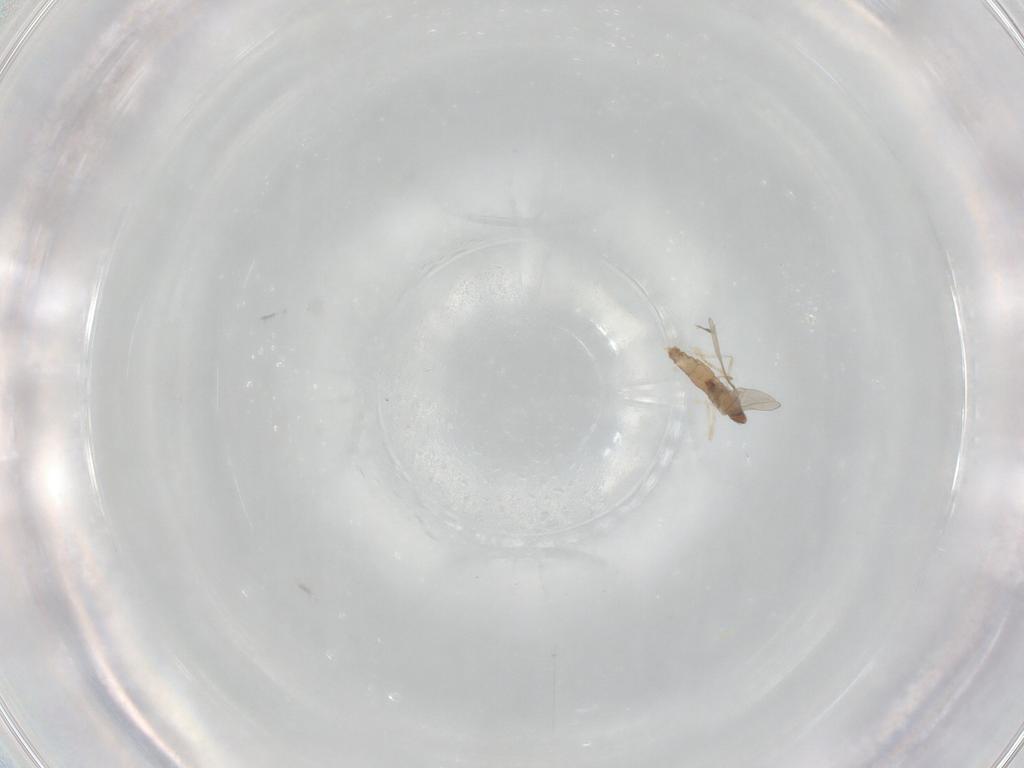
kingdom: Animalia
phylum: Arthropoda
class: Insecta
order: Diptera
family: Cecidomyiidae
